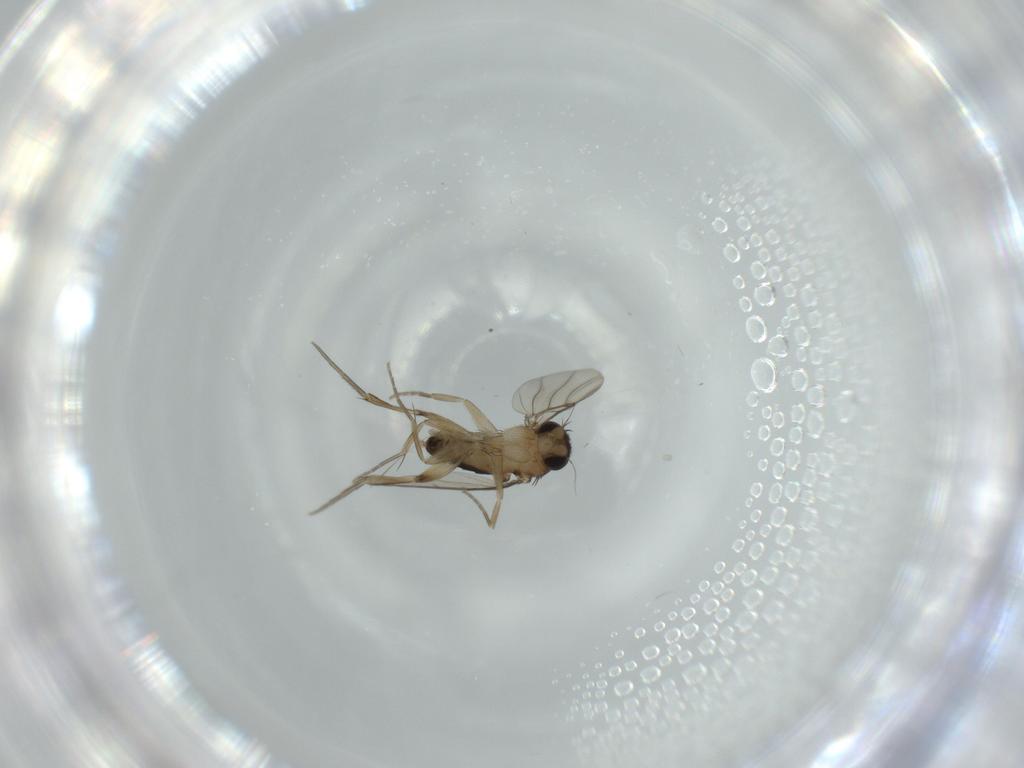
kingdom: Animalia
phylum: Arthropoda
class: Insecta
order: Diptera
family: Phoridae
